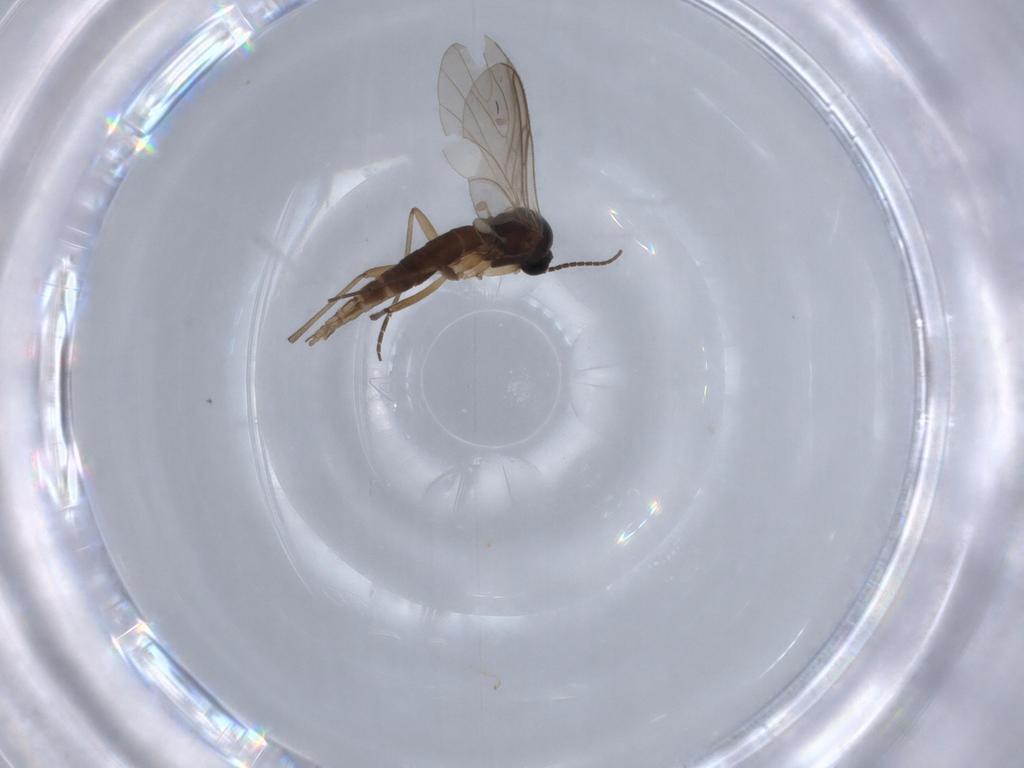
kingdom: Animalia
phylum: Arthropoda
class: Insecta
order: Diptera
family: Sciaridae
